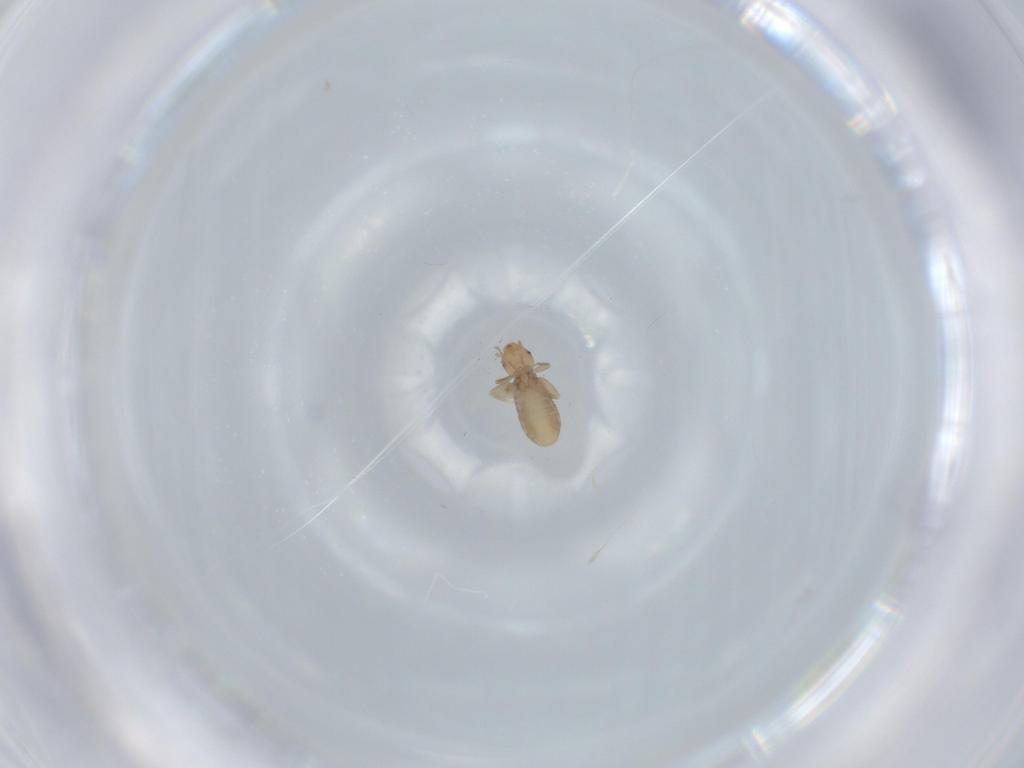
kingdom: Animalia
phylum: Arthropoda
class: Insecta
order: Psocodea
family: Liposcelididae
